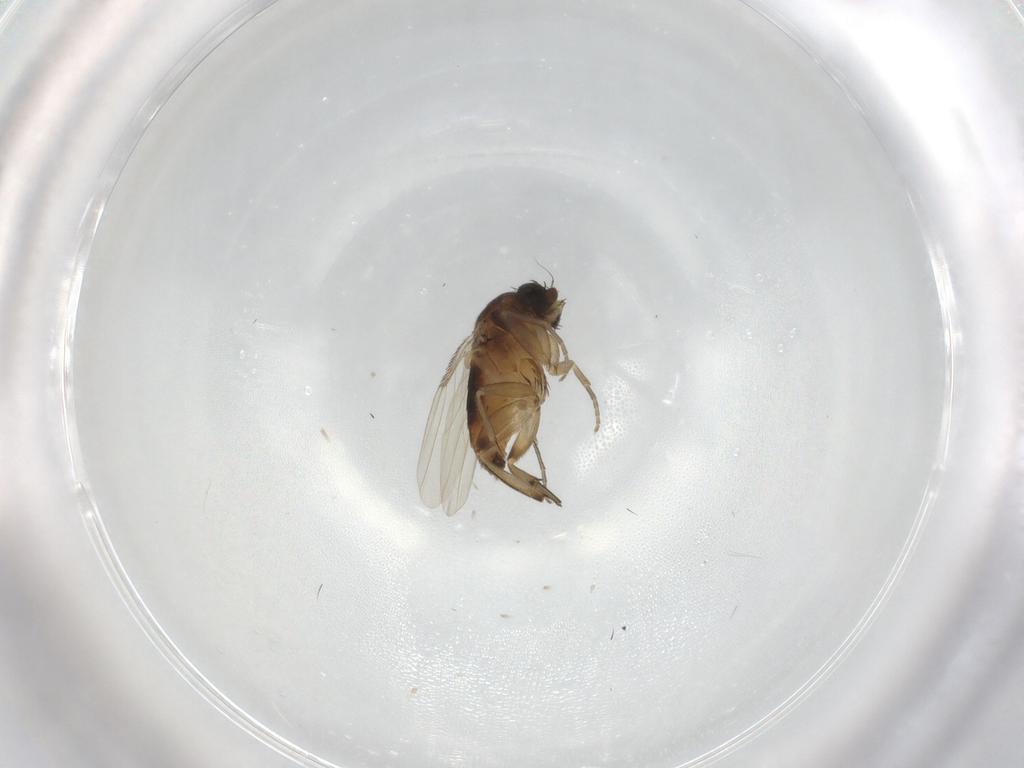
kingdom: Animalia
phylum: Arthropoda
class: Insecta
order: Diptera
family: Phoridae
